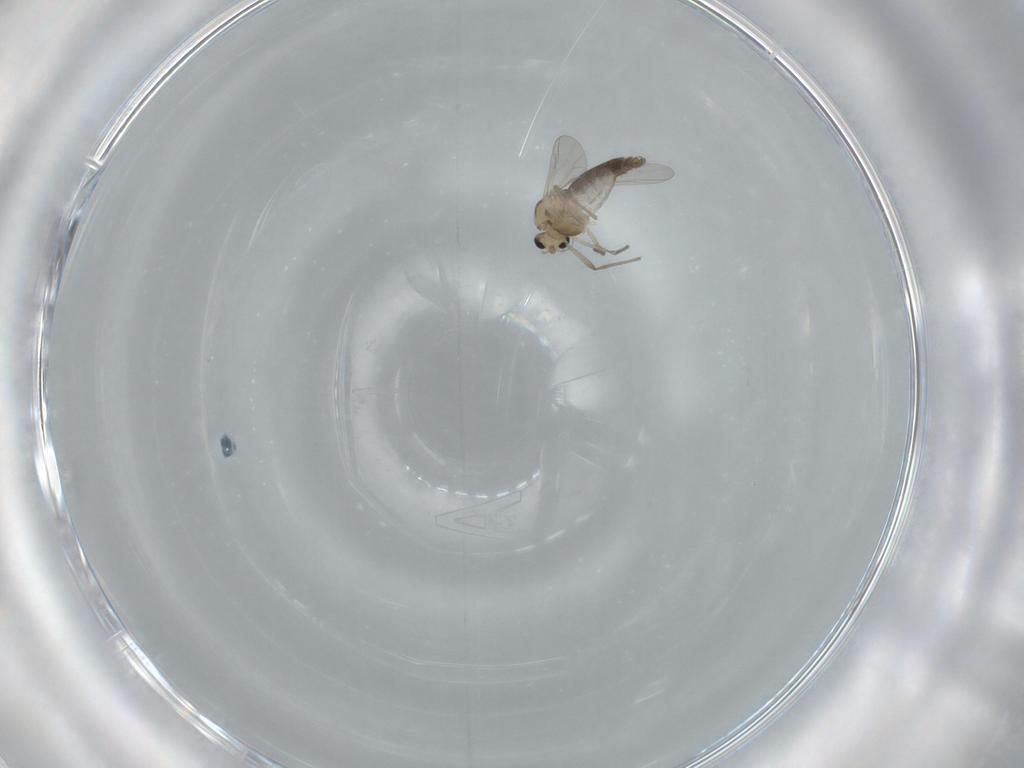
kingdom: Animalia
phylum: Arthropoda
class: Insecta
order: Diptera
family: Chironomidae
